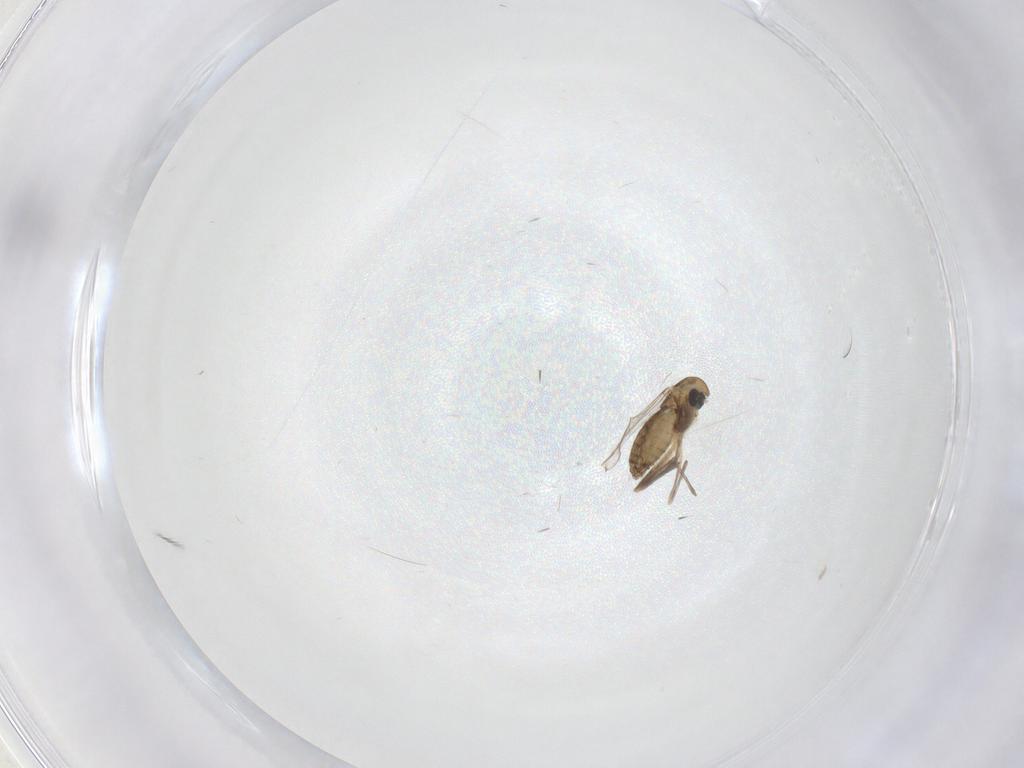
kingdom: Animalia
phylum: Arthropoda
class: Insecta
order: Diptera
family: Chironomidae
